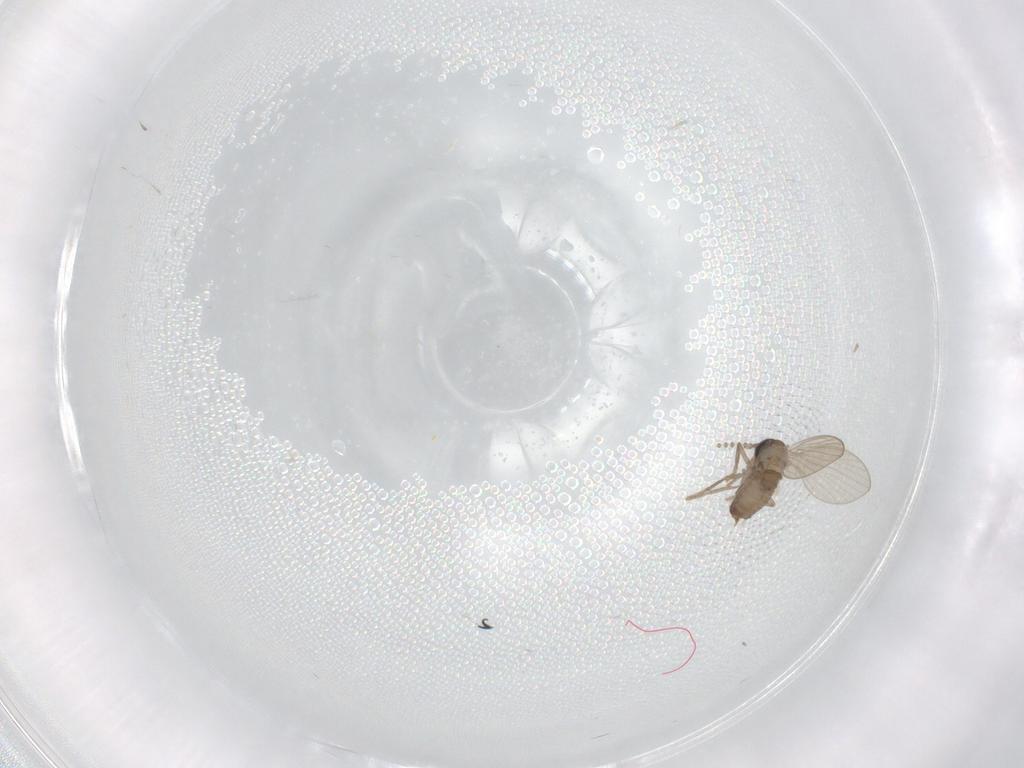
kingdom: Animalia
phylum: Arthropoda
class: Insecta
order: Diptera
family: Psychodidae
